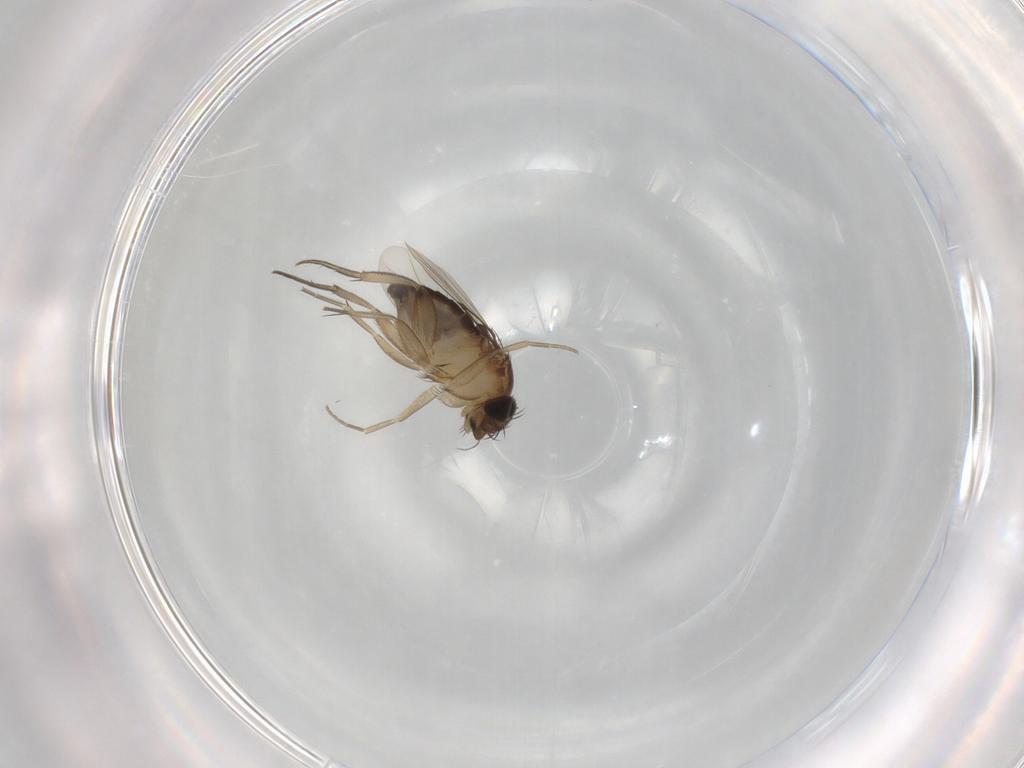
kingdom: Animalia
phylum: Arthropoda
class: Insecta
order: Diptera
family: Phoridae
